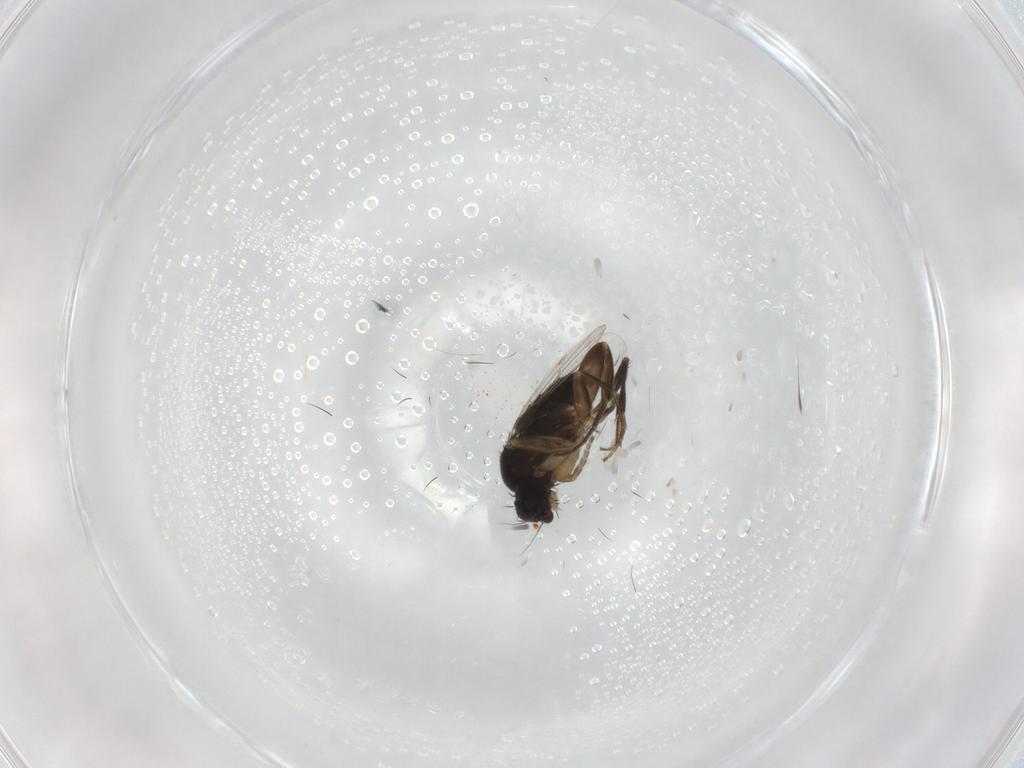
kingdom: Animalia
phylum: Arthropoda
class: Insecta
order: Diptera
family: Phoridae
